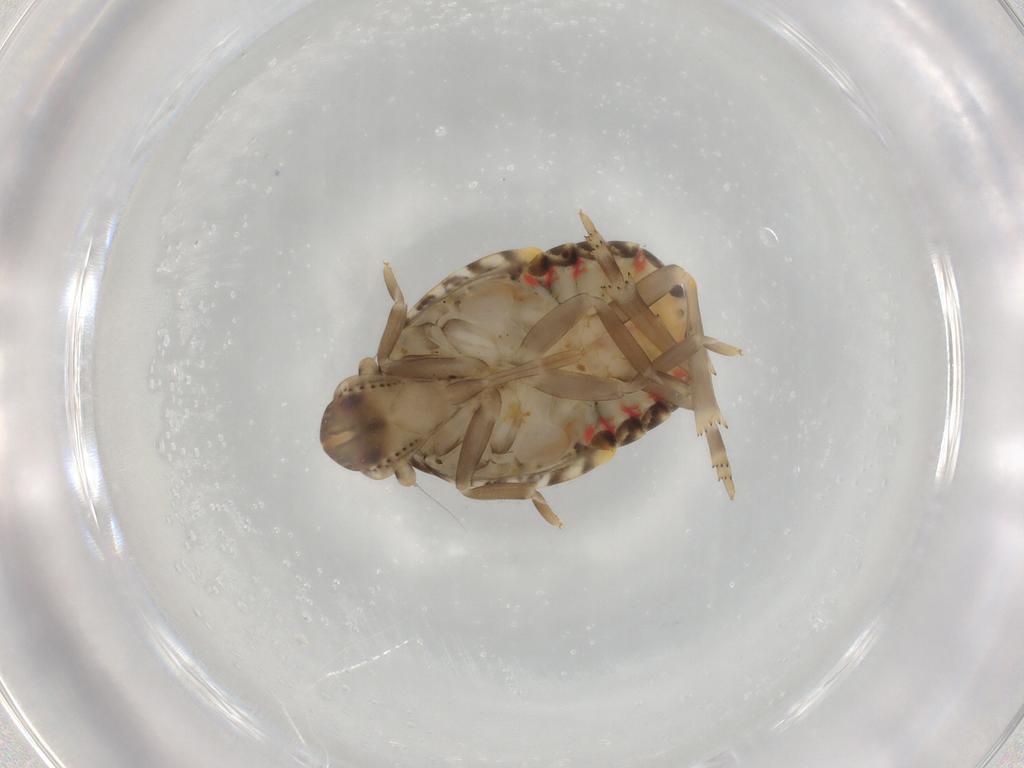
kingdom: Animalia
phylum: Arthropoda
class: Insecta
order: Hemiptera
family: Fulgoroidea_incertae_sedis
